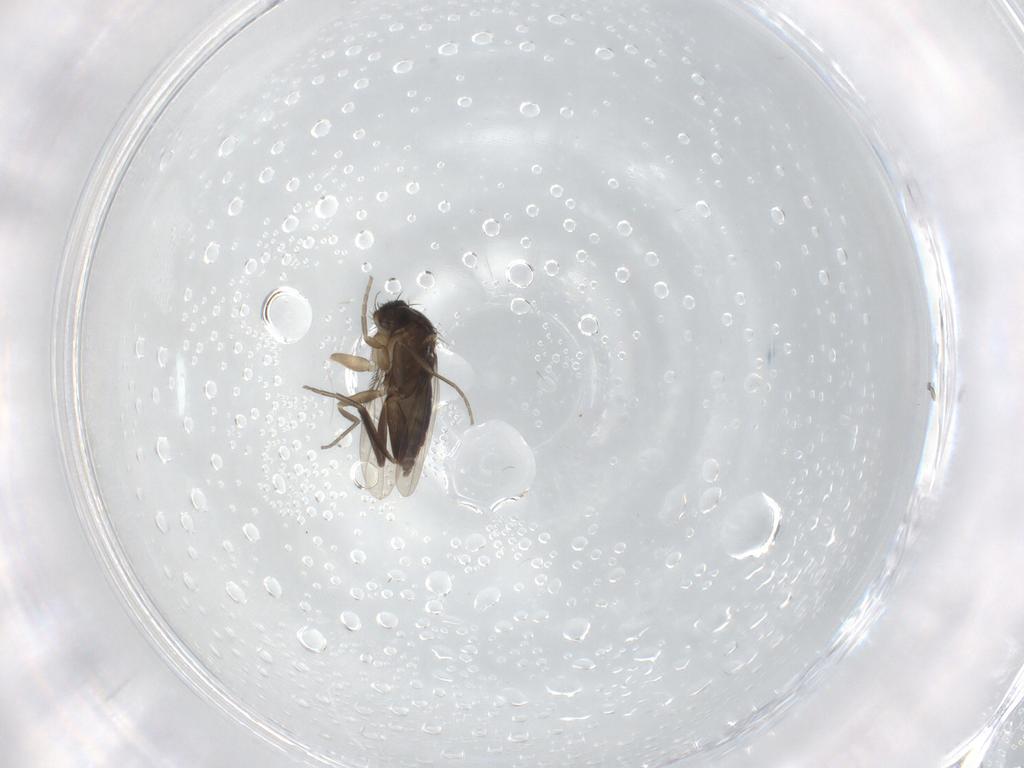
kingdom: Animalia
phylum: Arthropoda
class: Insecta
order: Diptera
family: Phoridae
